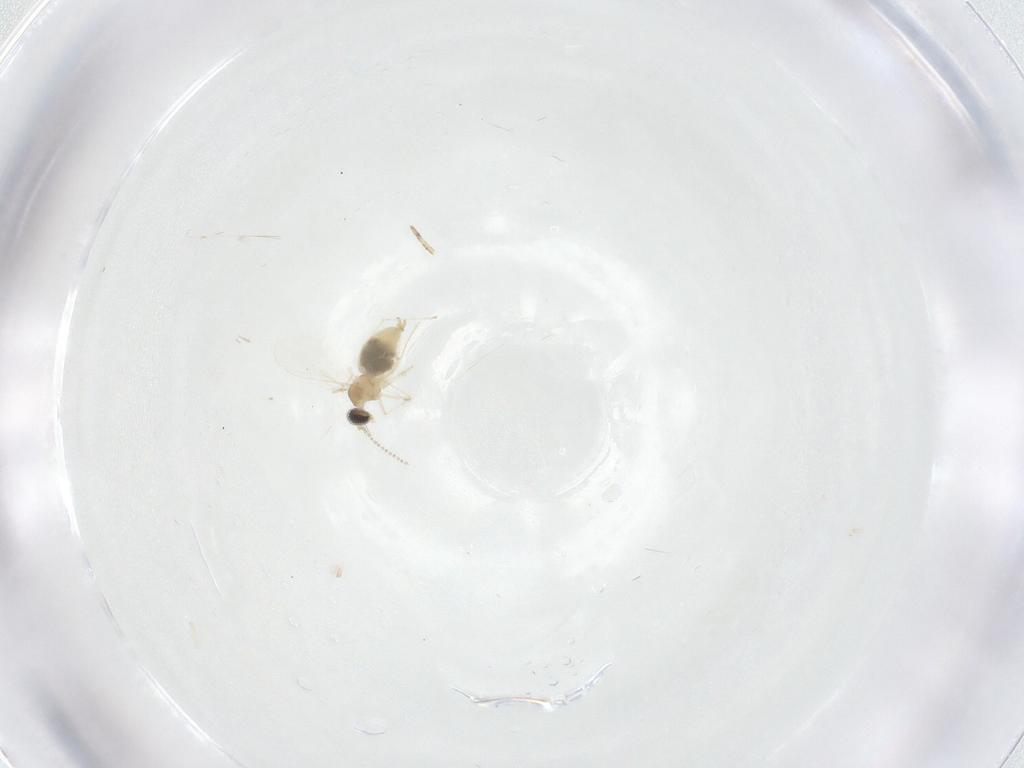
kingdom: Animalia
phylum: Arthropoda
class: Insecta
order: Diptera
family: Cecidomyiidae
